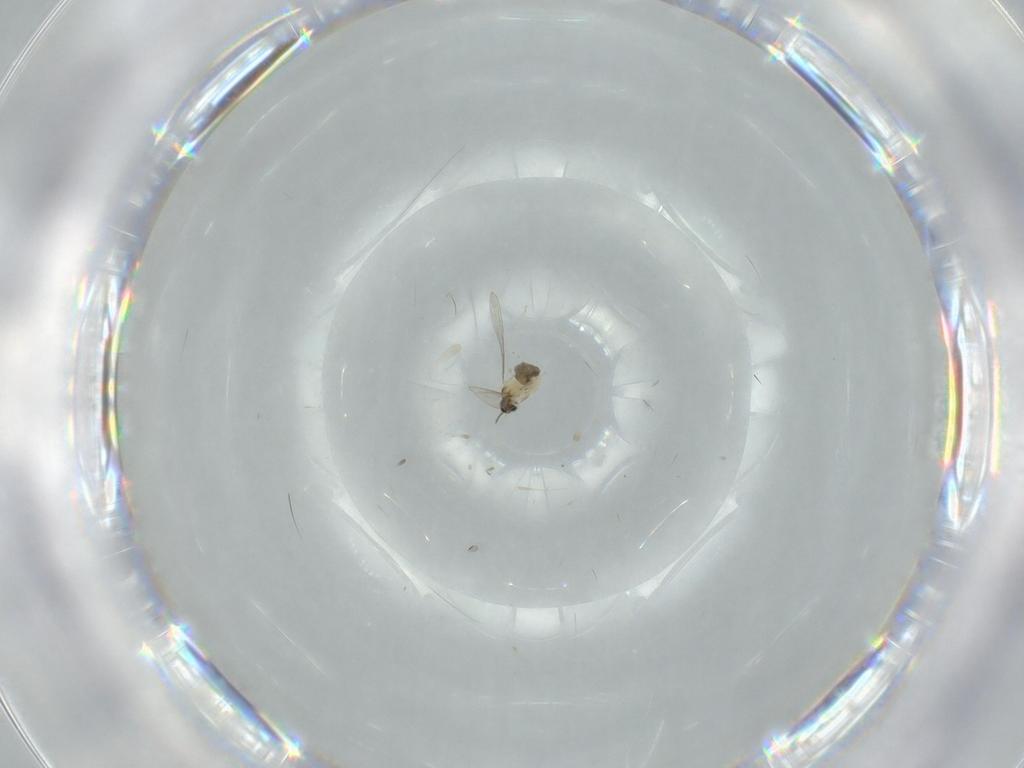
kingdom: Animalia
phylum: Arthropoda
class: Insecta
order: Diptera
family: Tabanidae
